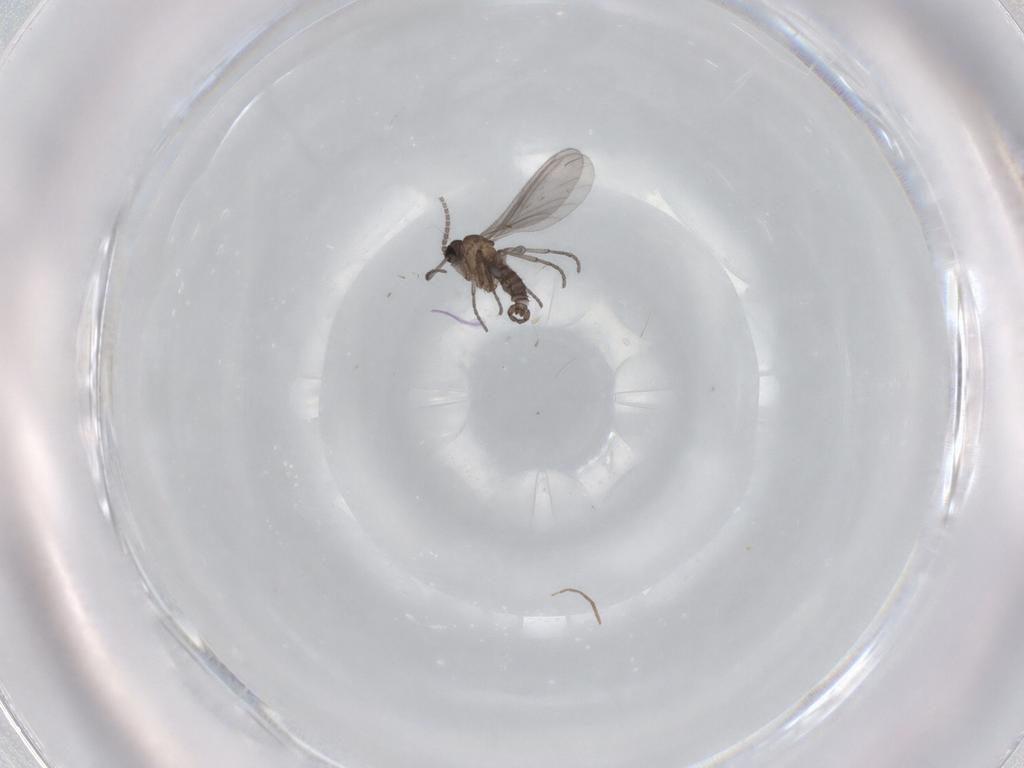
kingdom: Animalia
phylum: Arthropoda
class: Insecta
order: Diptera
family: Sciaridae
